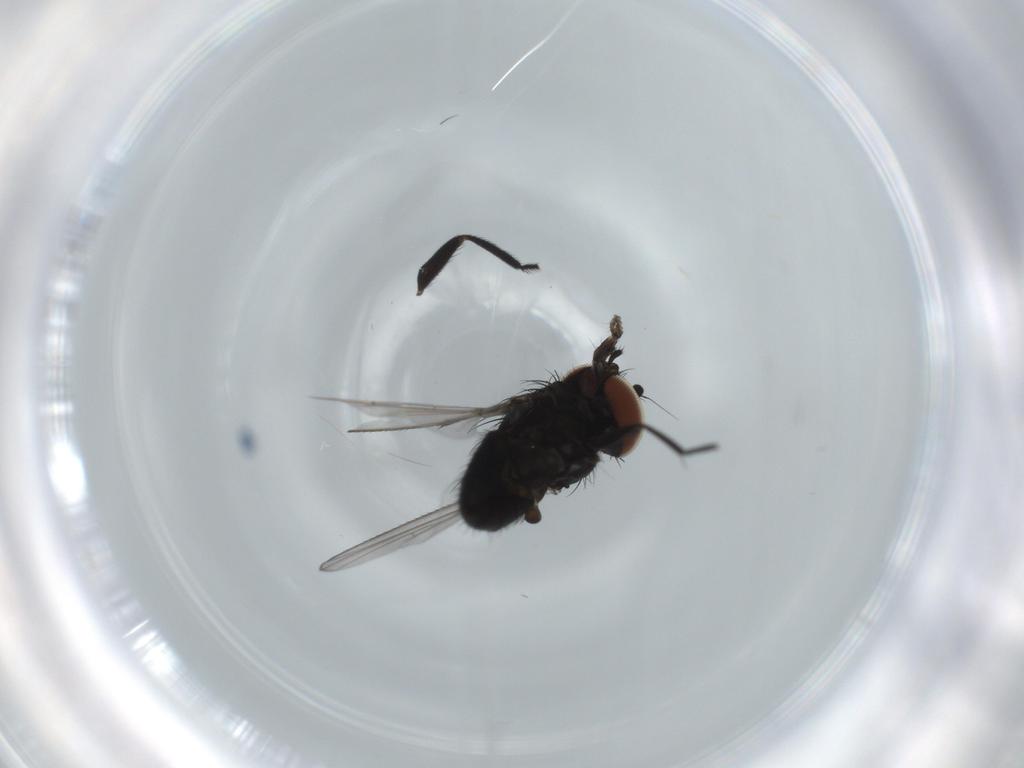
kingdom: Animalia
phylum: Arthropoda
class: Insecta
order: Diptera
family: Milichiidae
